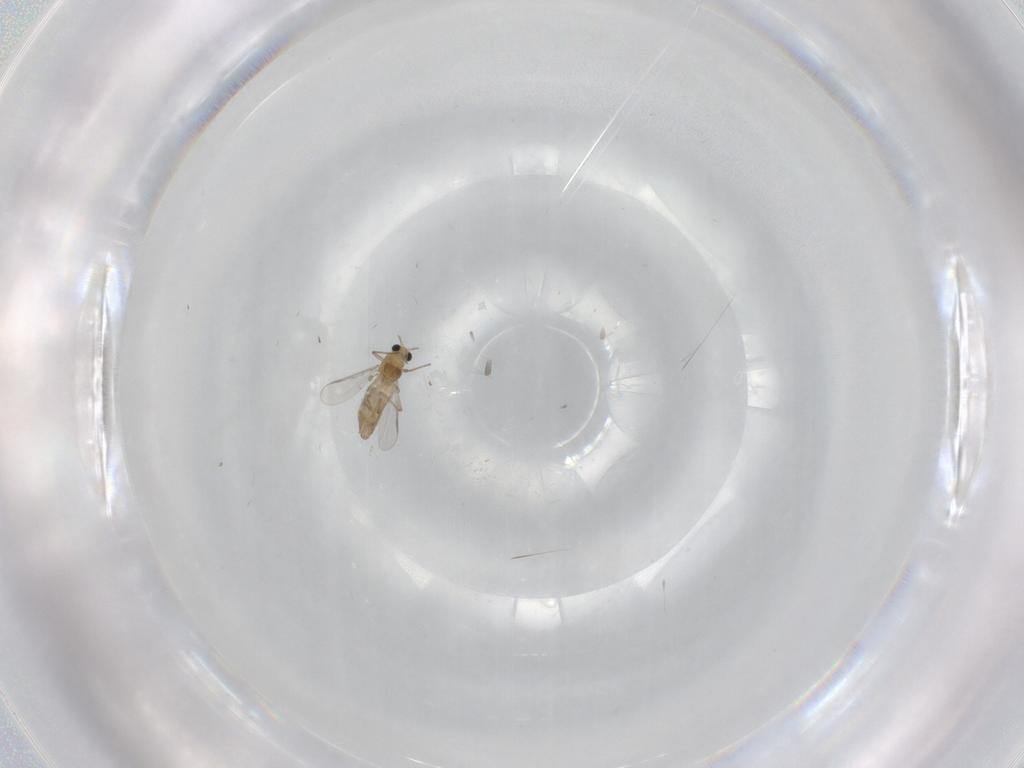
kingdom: Animalia
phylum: Arthropoda
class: Insecta
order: Diptera
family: Chironomidae
